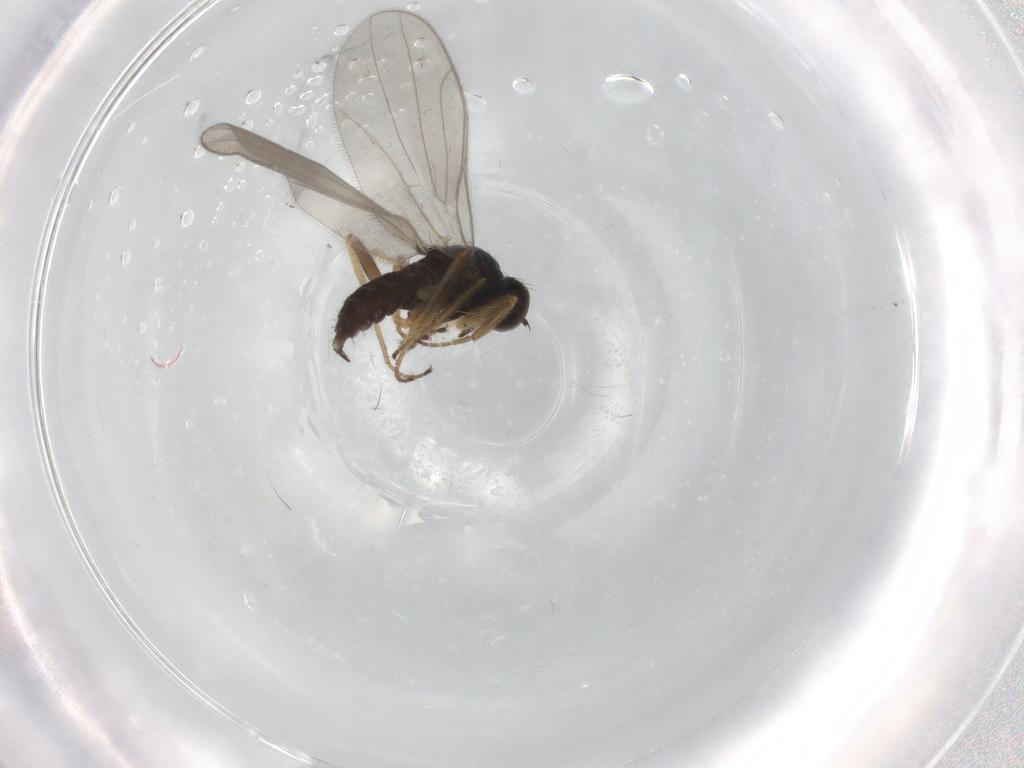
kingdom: Animalia
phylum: Arthropoda
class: Insecta
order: Diptera
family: Hybotidae
